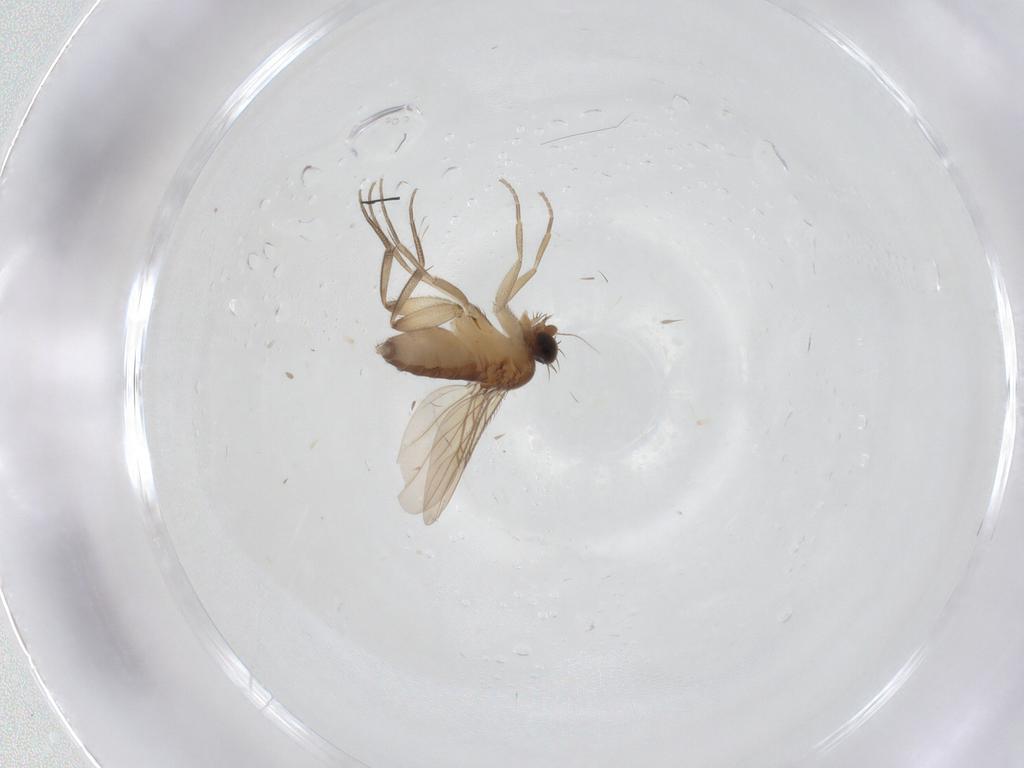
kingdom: Animalia
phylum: Arthropoda
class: Insecta
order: Diptera
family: Phoridae
